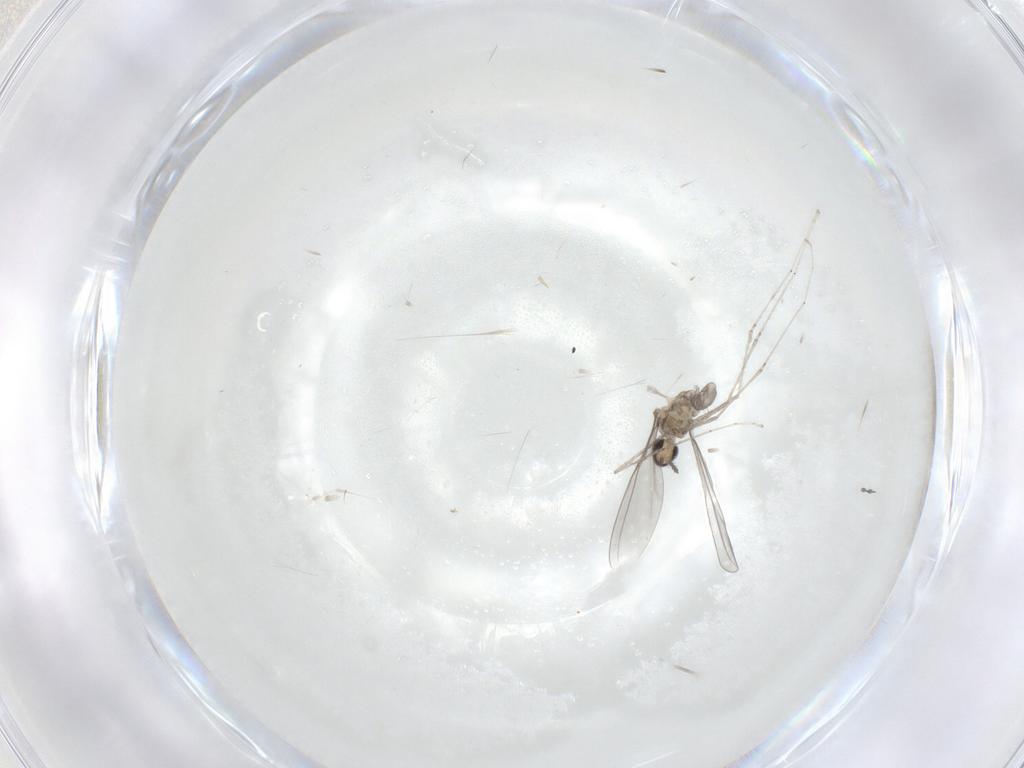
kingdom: Animalia
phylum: Arthropoda
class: Insecta
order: Diptera
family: Cecidomyiidae
